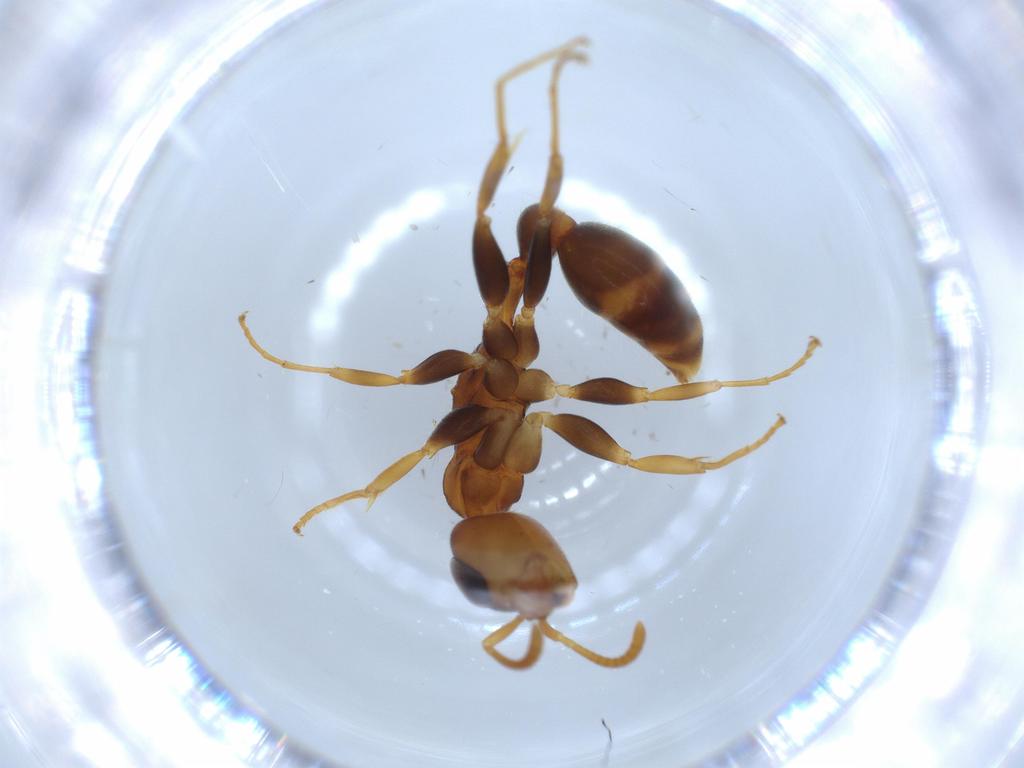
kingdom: Animalia
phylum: Arthropoda
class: Insecta
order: Hymenoptera
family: Formicidae
